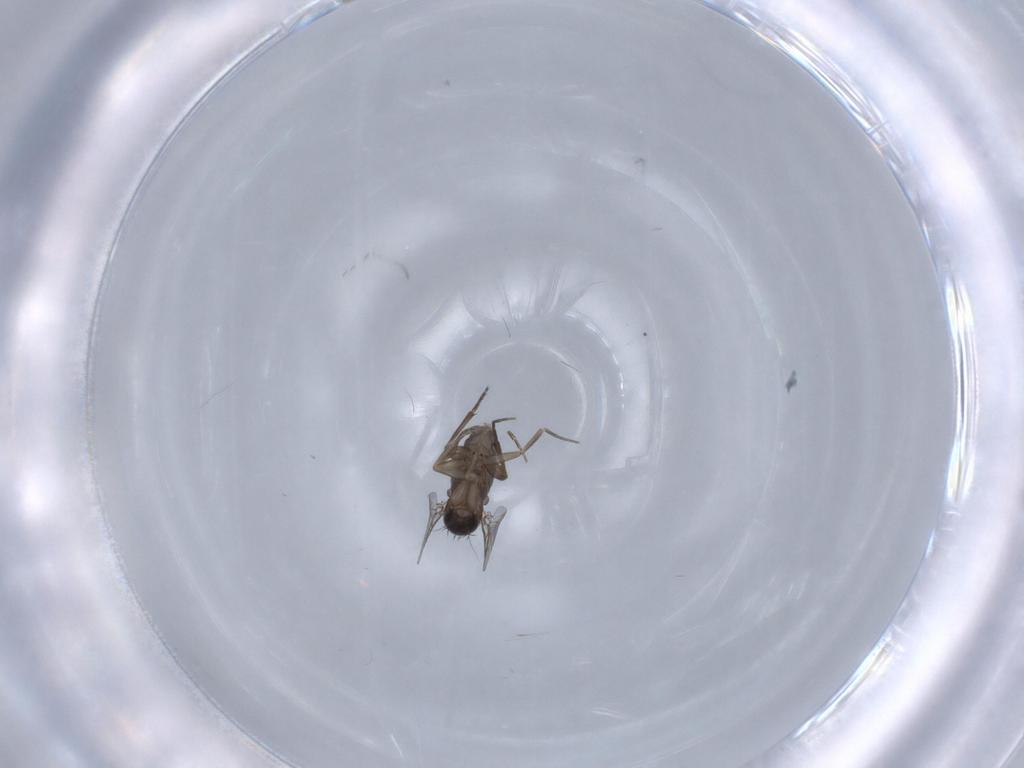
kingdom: Animalia
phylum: Arthropoda
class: Insecta
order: Diptera
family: Phoridae
